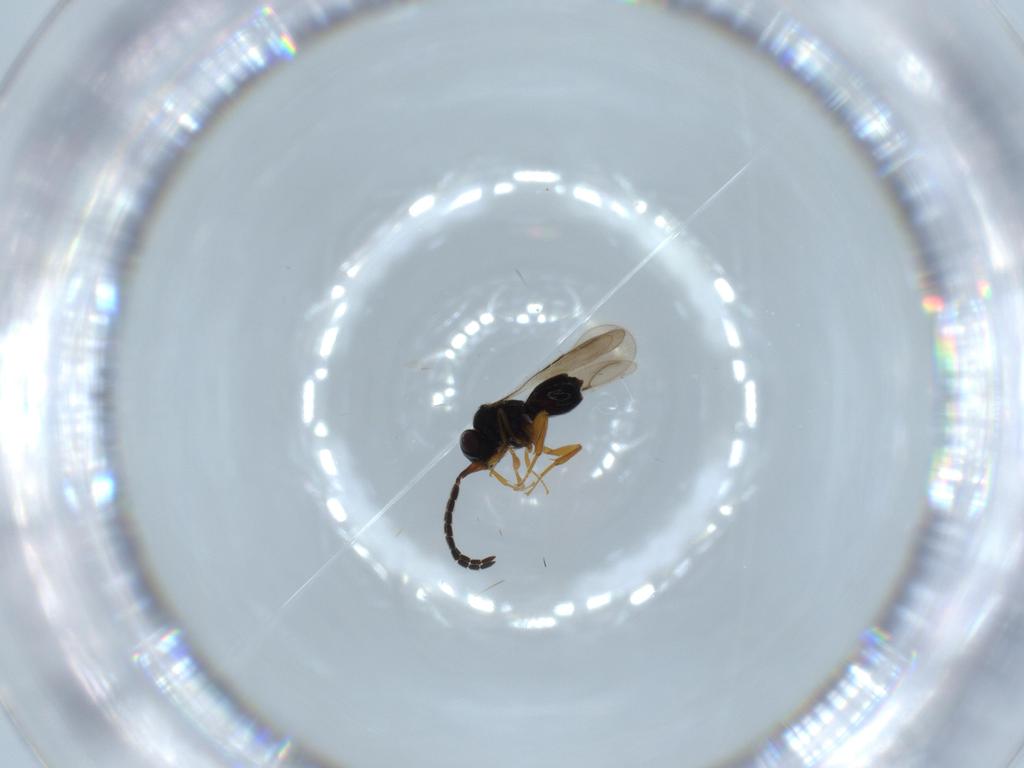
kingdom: Animalia
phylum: Arthropoda
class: Insecta
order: Hymenoptera
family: Ceraphronidae
